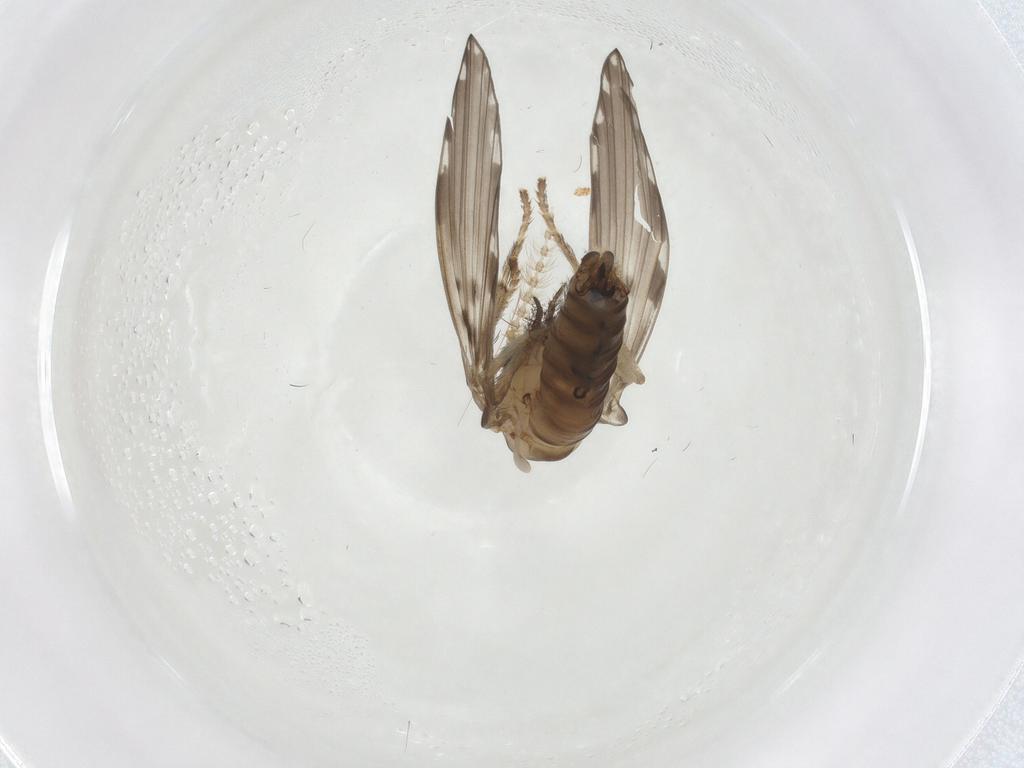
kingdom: Animalia
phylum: Arthropoda
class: Insecta
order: Diptera
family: Psychodidae
